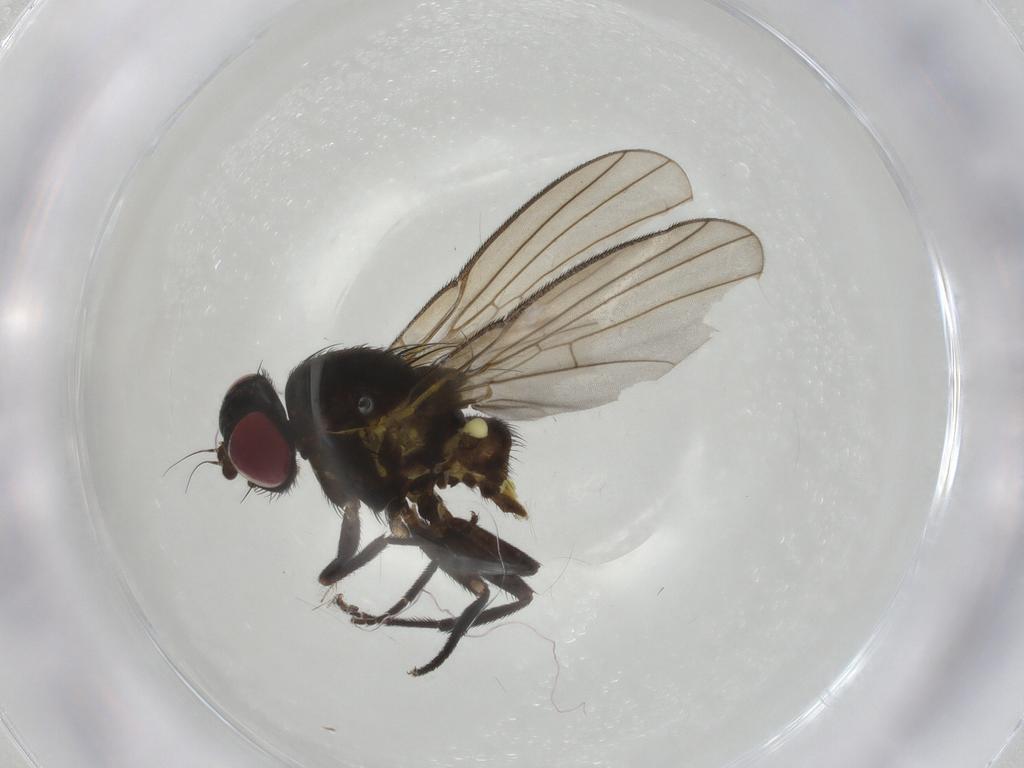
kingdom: Animalia
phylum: Arthropoda
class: Insecta
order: Diptera
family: Agromyzidae
